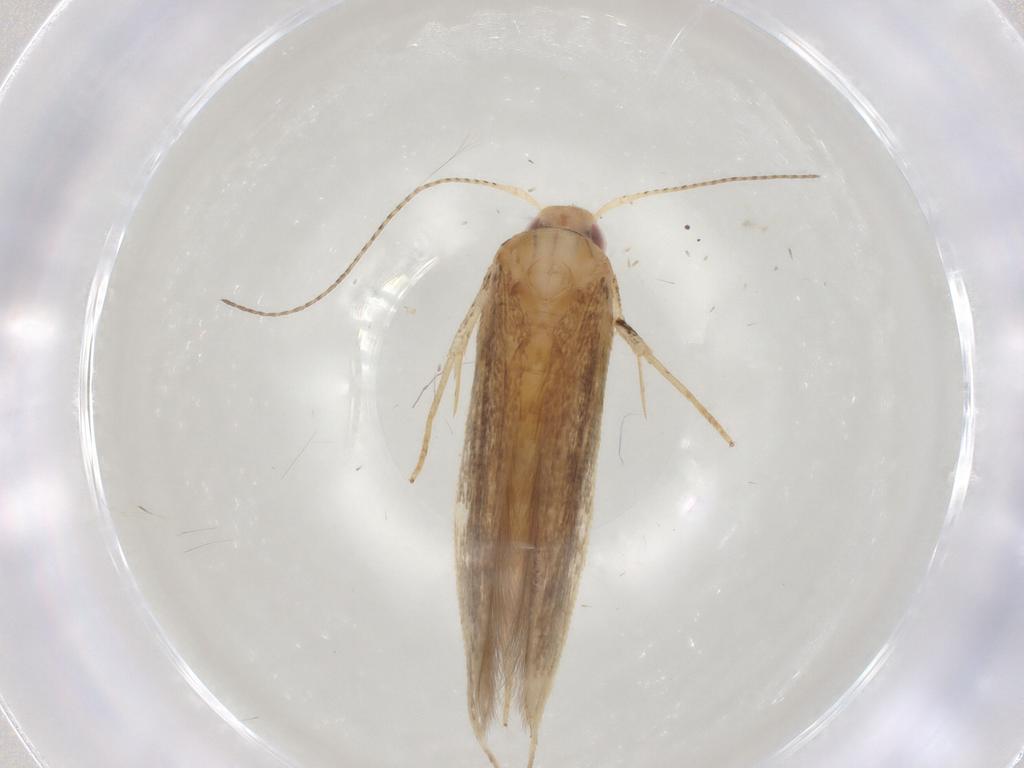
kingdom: Animalia
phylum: Arthropoda
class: Insecta
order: Lepidoptera
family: Cosmopterigidae
